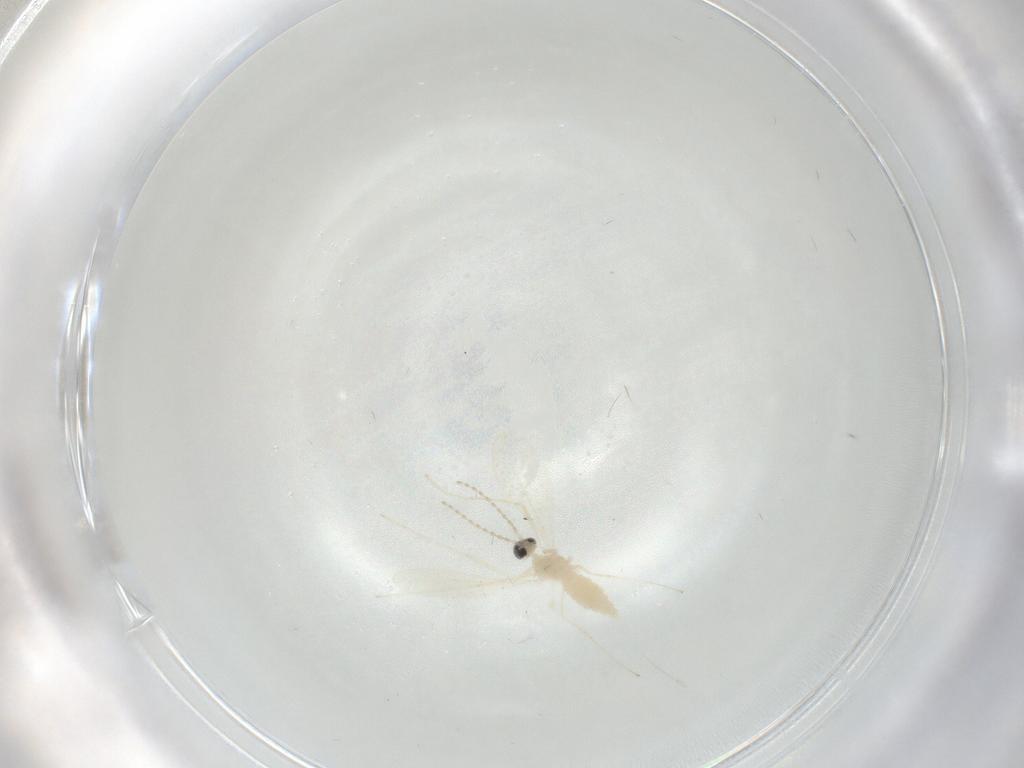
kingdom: Animalia
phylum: Arthropoda
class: Insecta
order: Diptera
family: Cecidomyiidae
